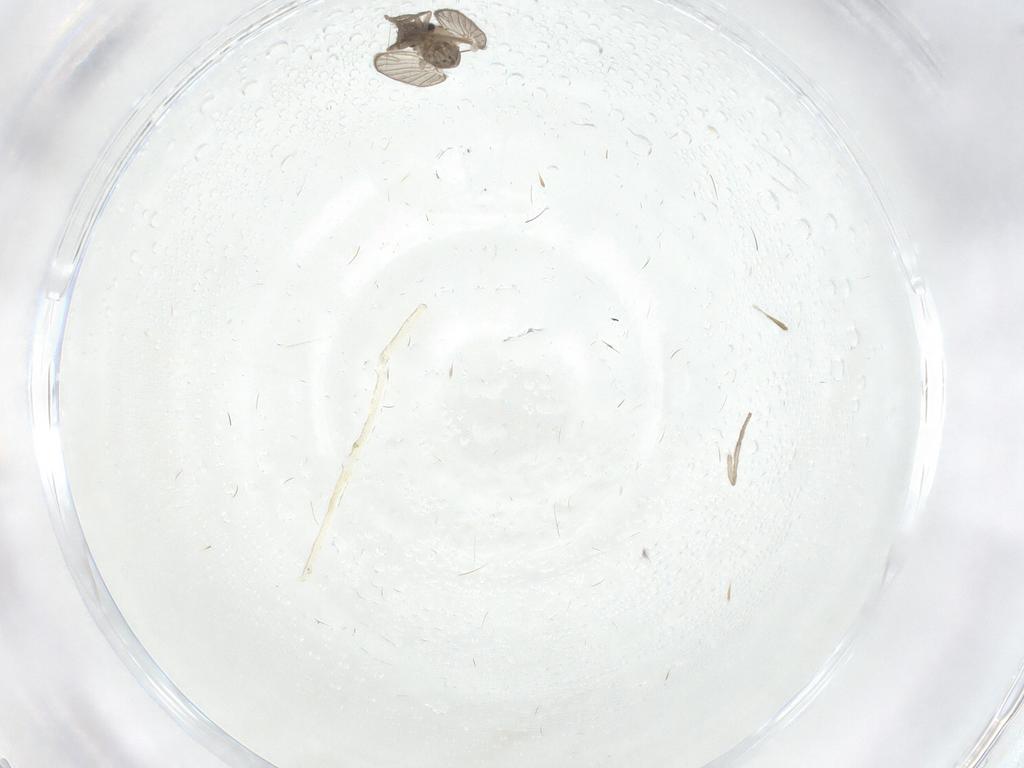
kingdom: Animalia
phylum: Arthropoda
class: Insecta
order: Diptera
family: Psychodidae
